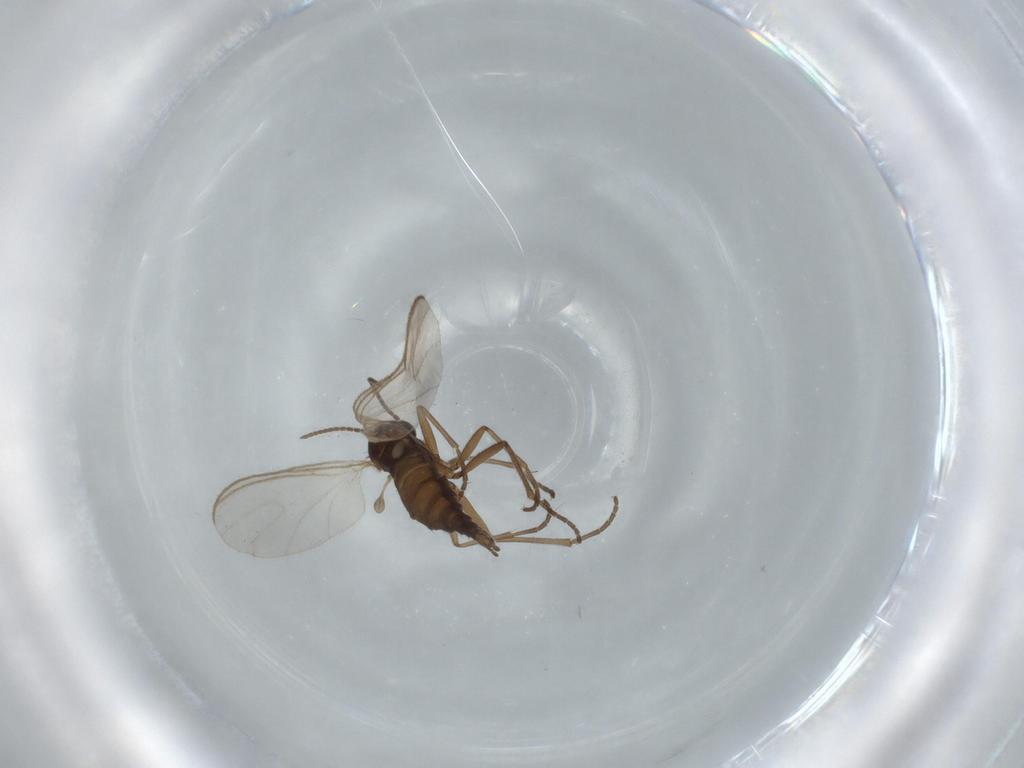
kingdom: Animalia
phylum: Arthropoda
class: Insecta
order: Diptera
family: Sciaridae
